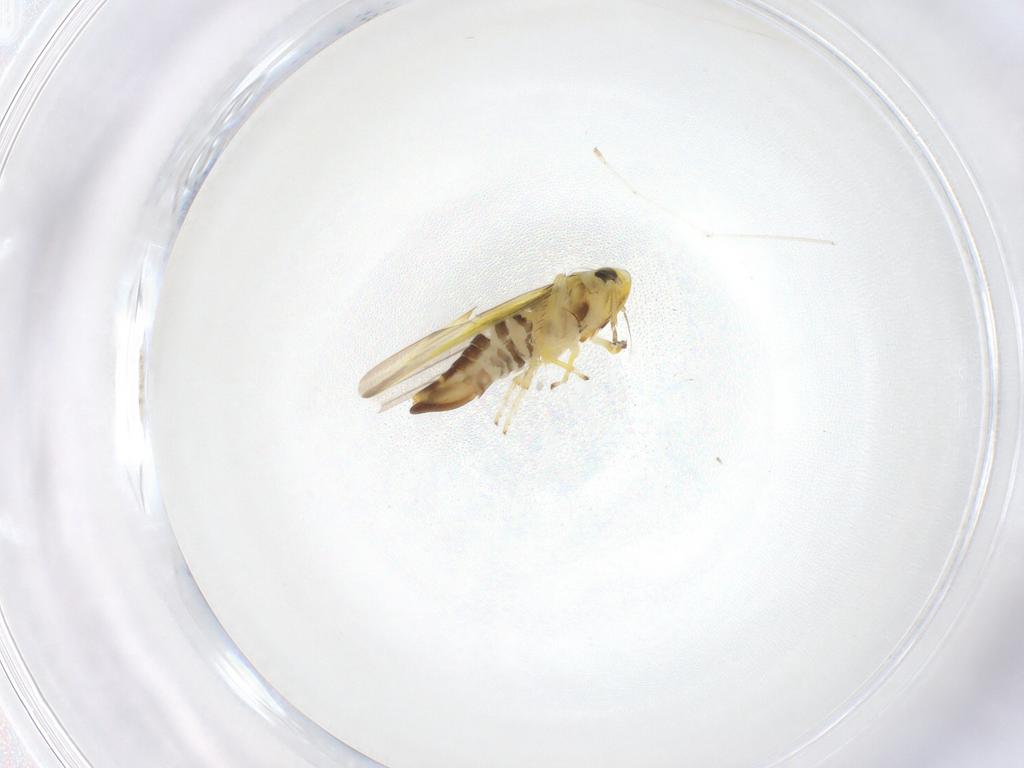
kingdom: Animalia
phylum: Arthropoda
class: Insecta
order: Hemiptera
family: Cicadellidae
